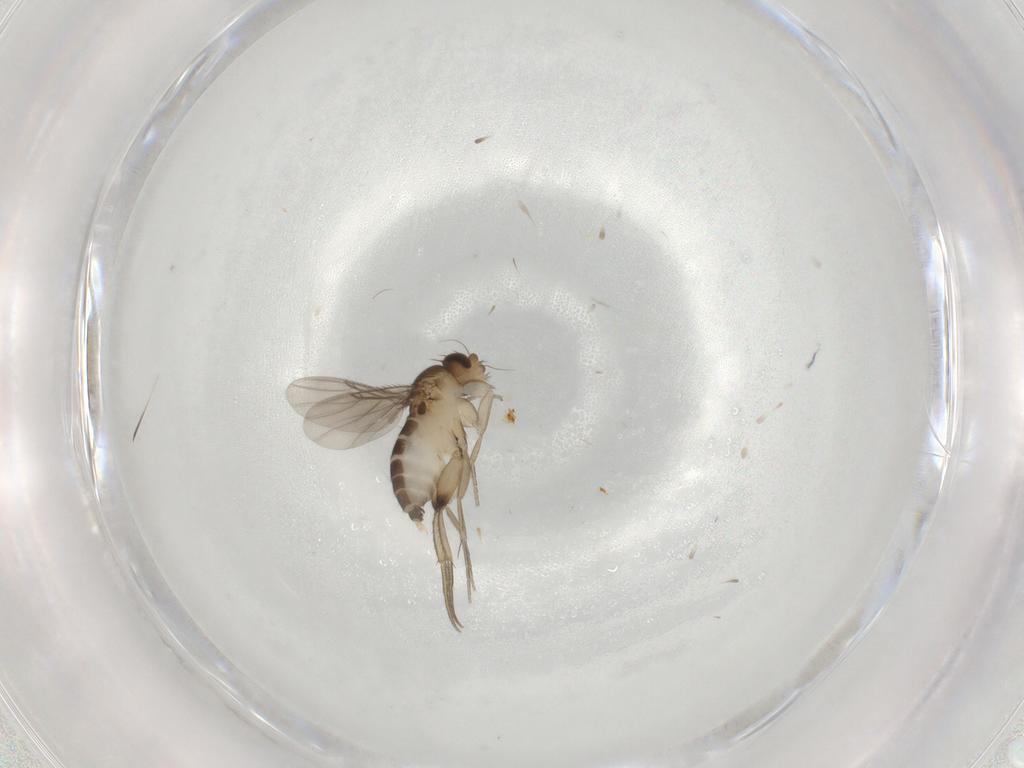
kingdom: Animalia
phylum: Arthropoda
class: Insecta
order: Diptera
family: Phoridae
